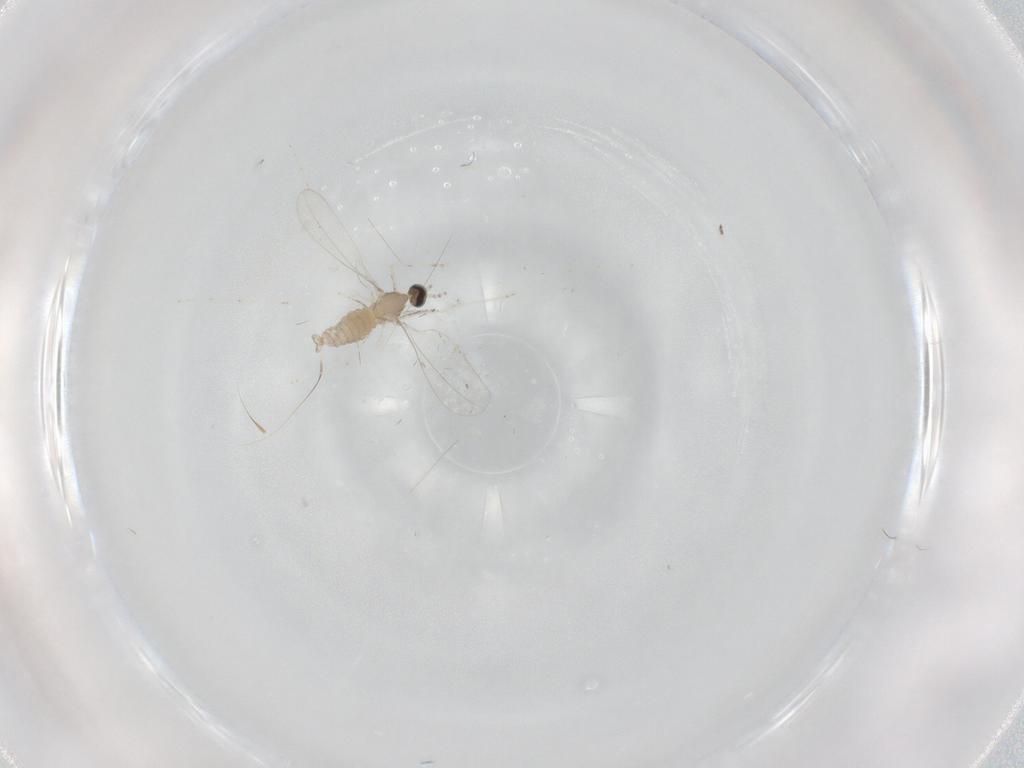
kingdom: Animalia
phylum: Arthropoda
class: Insecta
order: Diptera
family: Cecidomyiidae
